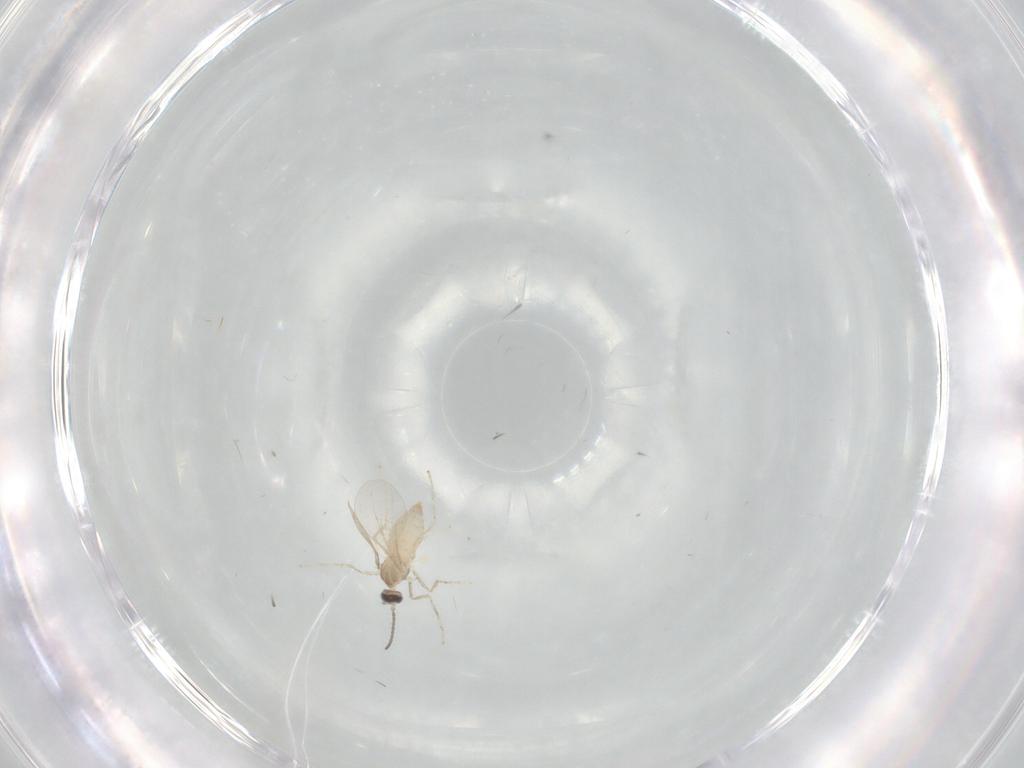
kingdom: Animalia
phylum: Arthropoda
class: Insecta
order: Diptera
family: Cecidomyiidae
